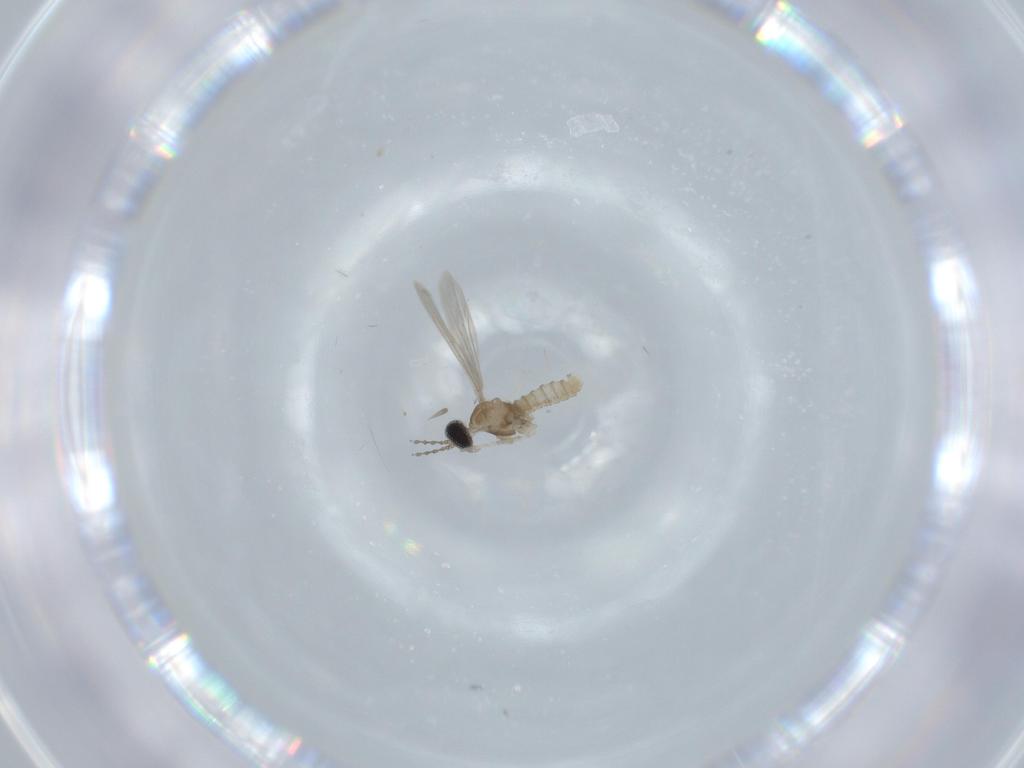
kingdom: Animalia
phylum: Arthropoda
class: Insecta
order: Diptera
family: Cecidomyiidae
